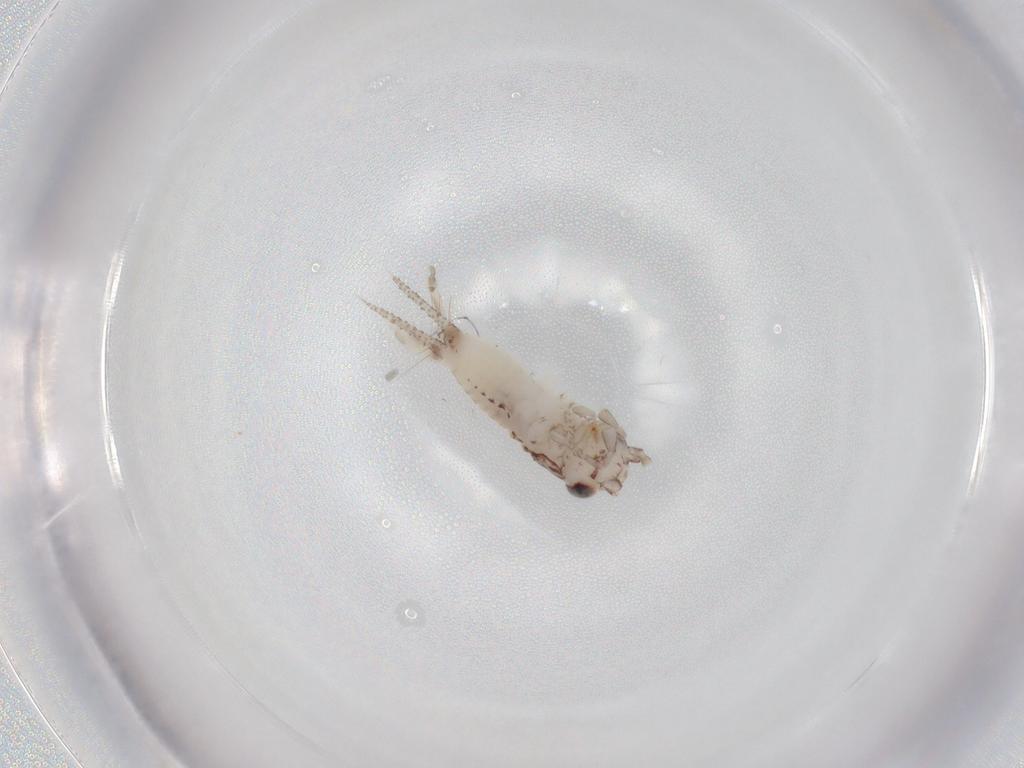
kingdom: Animalia
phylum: Arthropoda
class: Insecta
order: Orthoptera
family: Trigonidiidae
